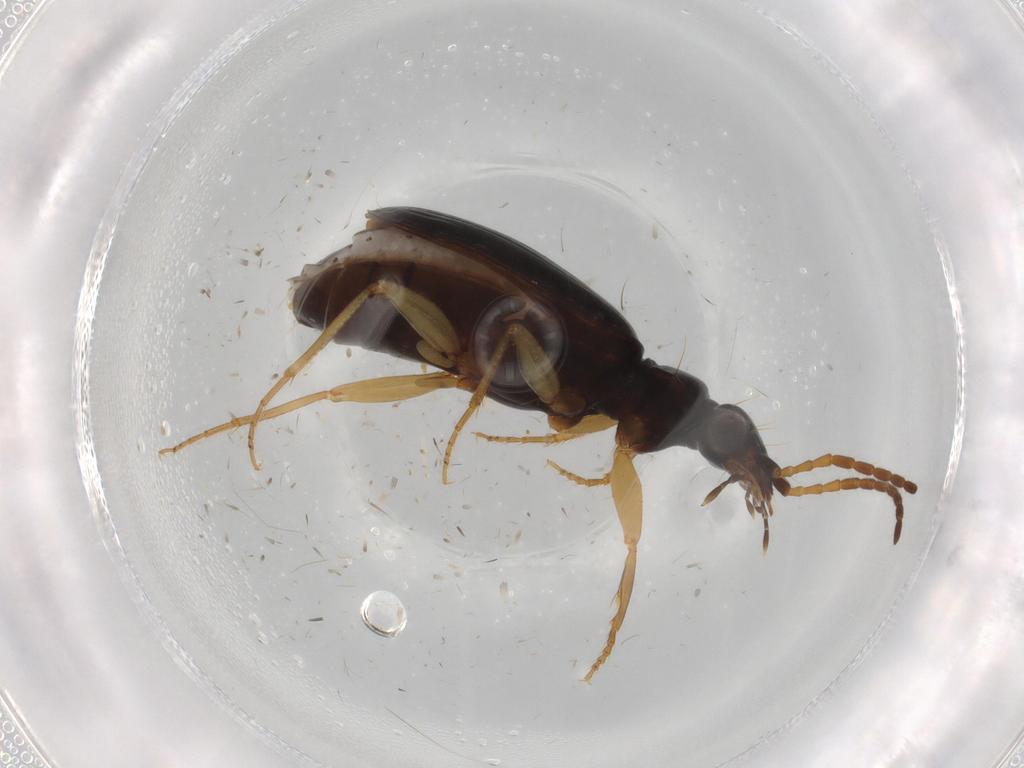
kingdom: Animalia
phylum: Arthropoda
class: Insecta
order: Coleoptera
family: Carabidae
